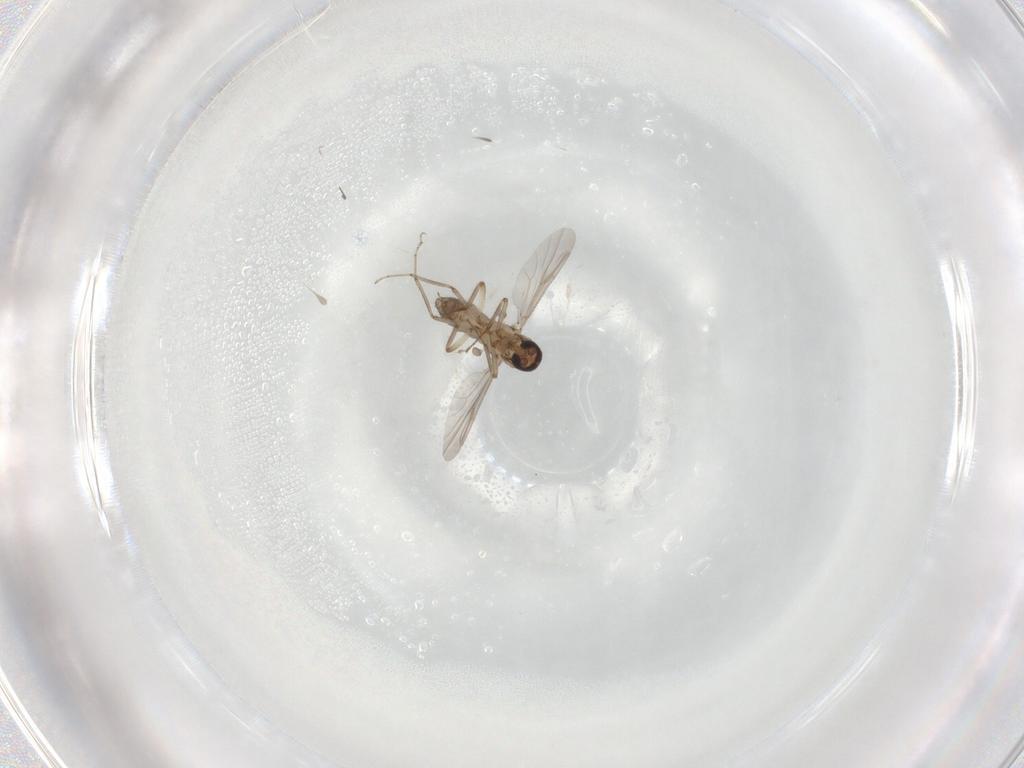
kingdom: Animalia
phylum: Arthropoda
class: Insecta
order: Diptera
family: Ceratopogonidae
